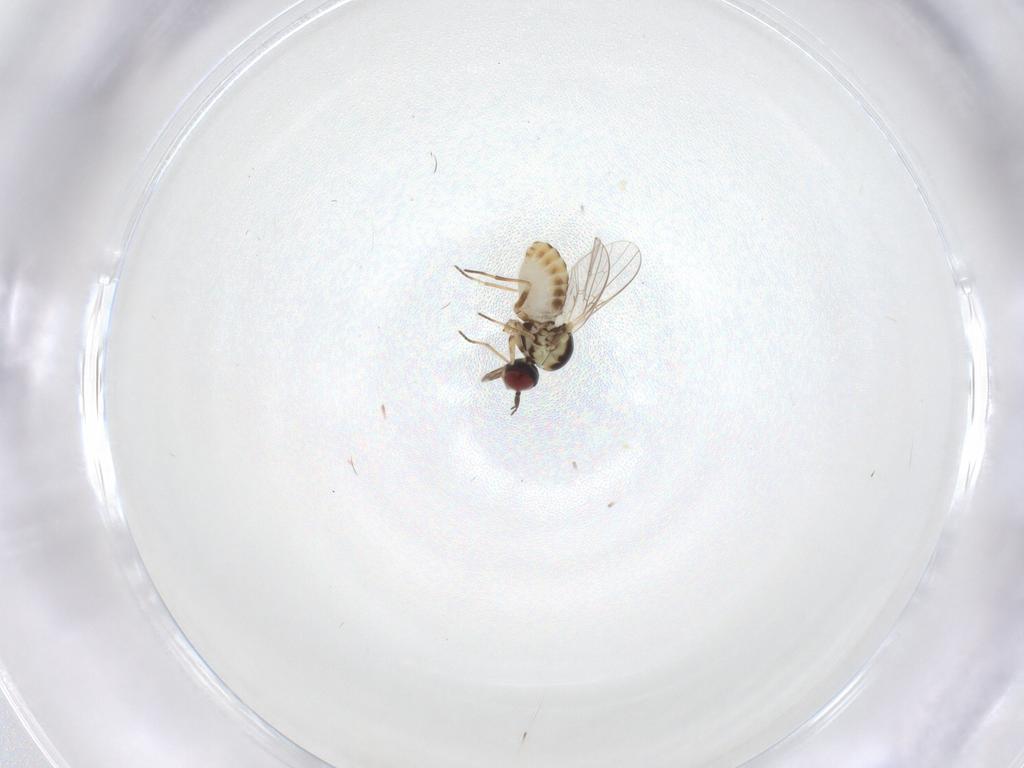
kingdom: Animalia
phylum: Arthropoda
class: Insecta
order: Diptera
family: Mythicomyiidae
